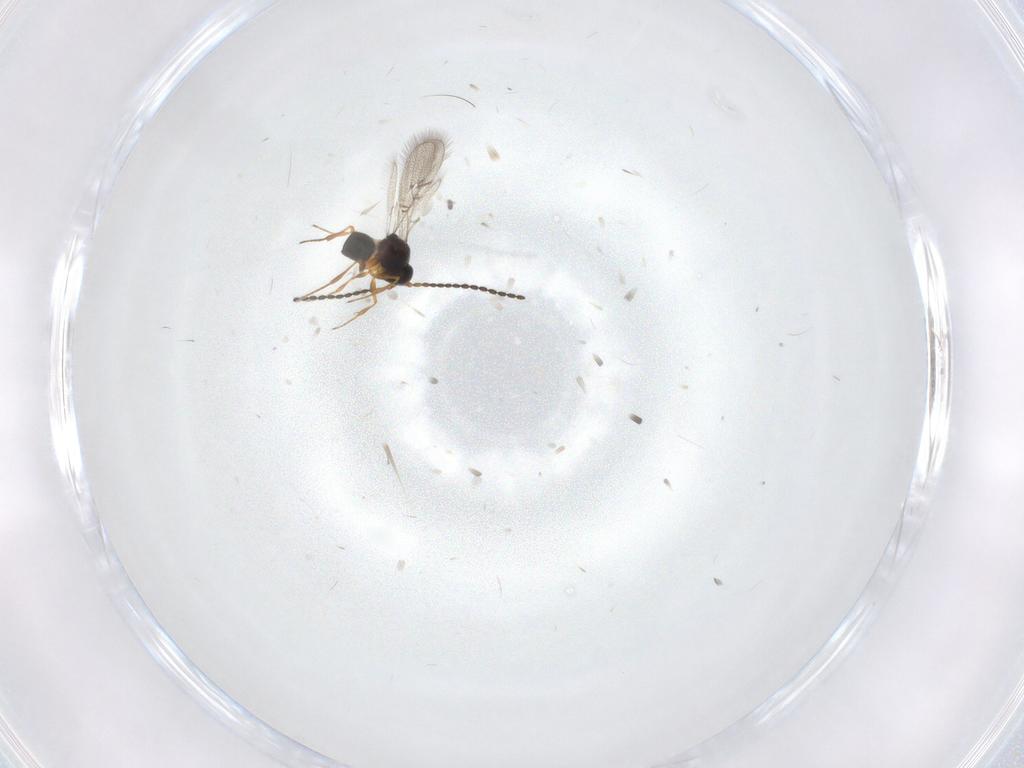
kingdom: Animalia
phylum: Arthropoda
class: Insecta
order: Hymenoptera
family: Figitidae
